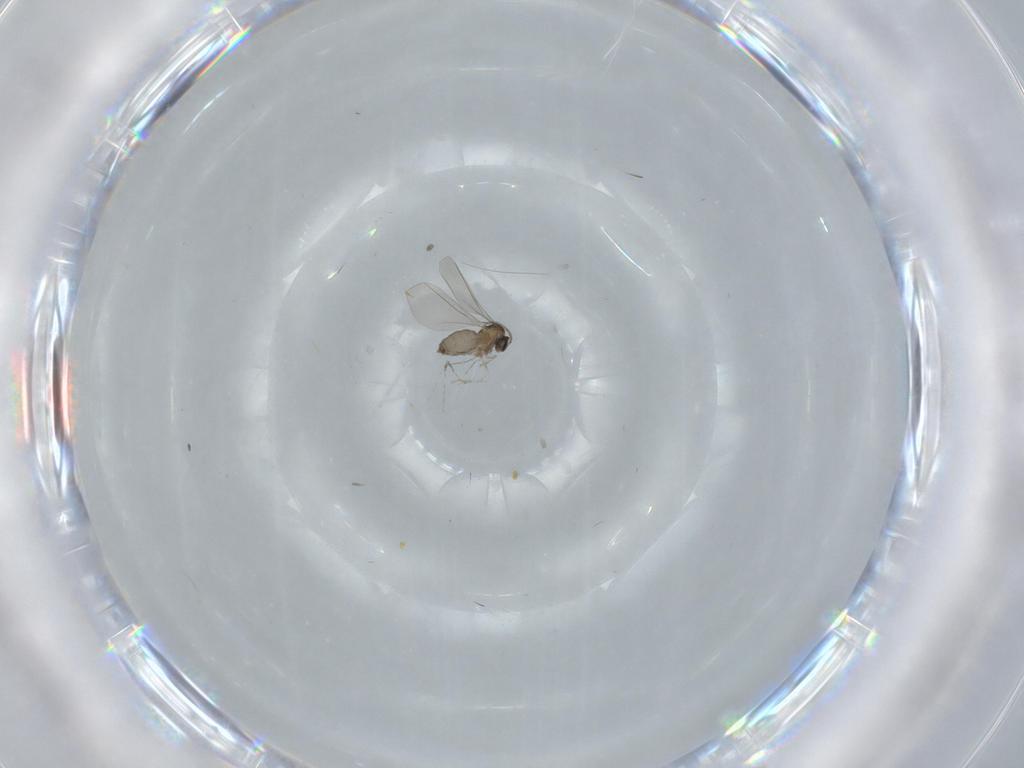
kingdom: Animalia
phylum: Arthropoda
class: Insecta
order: Diptera
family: Cecidomyiidae
